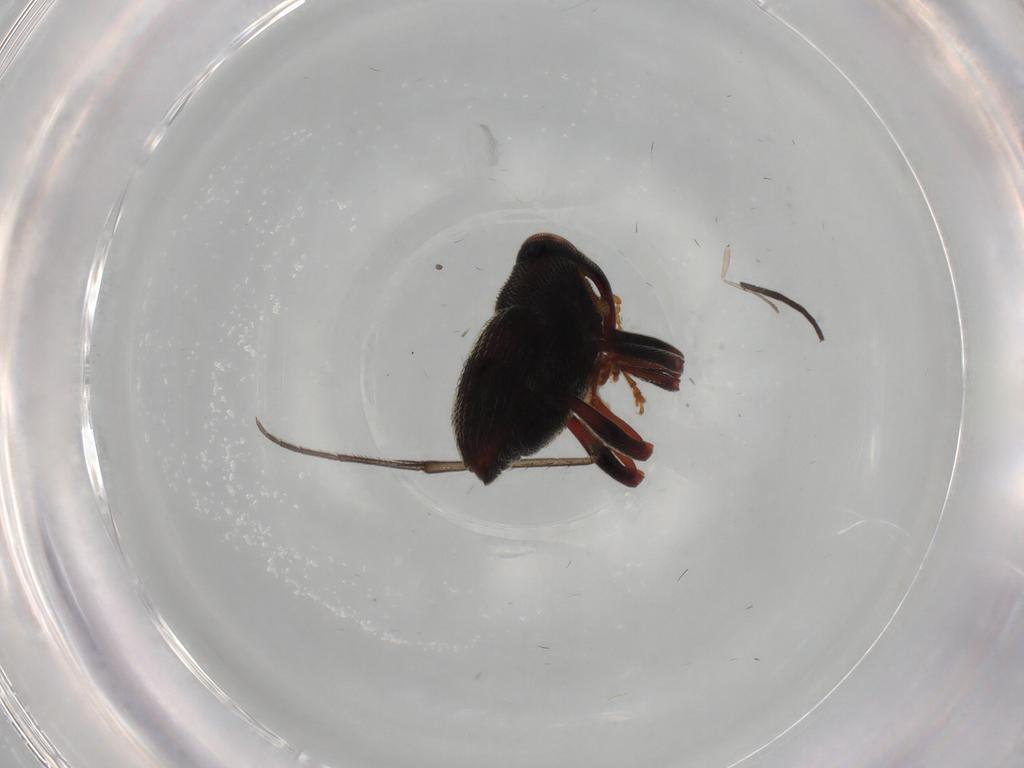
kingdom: Animalia
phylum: Arthropoda
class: Insecta
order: Coleoptera
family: Curculionidae
